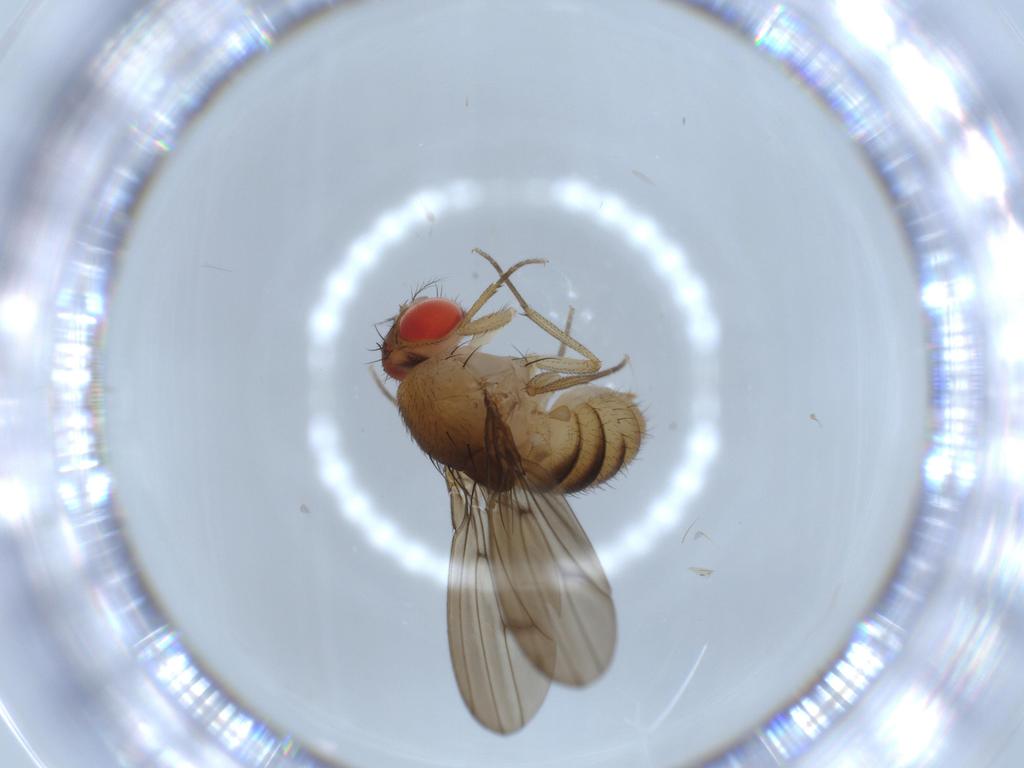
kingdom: Animalia
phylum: Arthropoda
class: Insecta
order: Diptera
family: Drosophilidae
